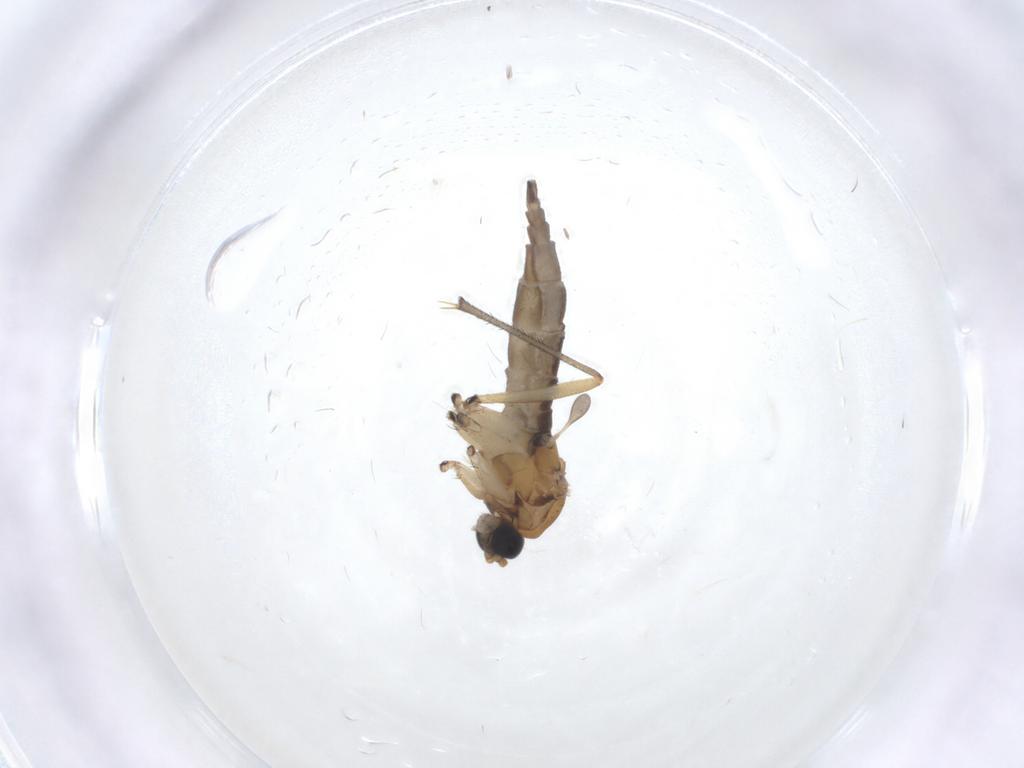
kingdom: Animalia
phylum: Arthropoda
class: Insecta
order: Diptera
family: Sciaridae
